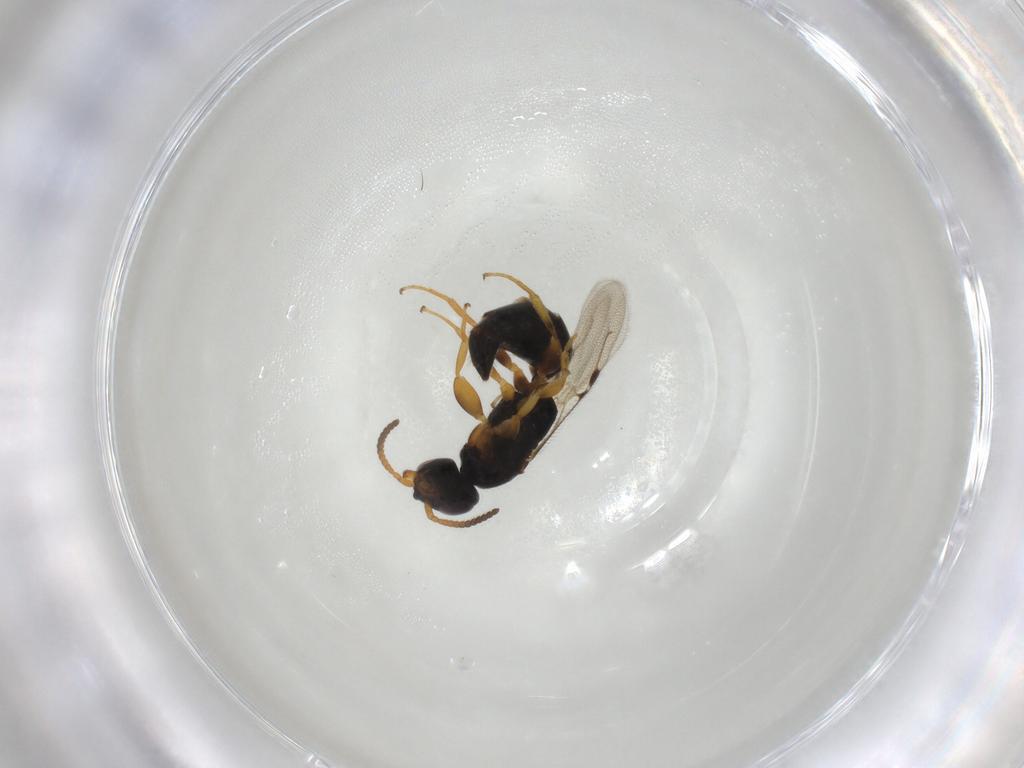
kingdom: Animalia
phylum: Arthropoda
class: Insecta
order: Hymenoptera
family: Bethylidae
